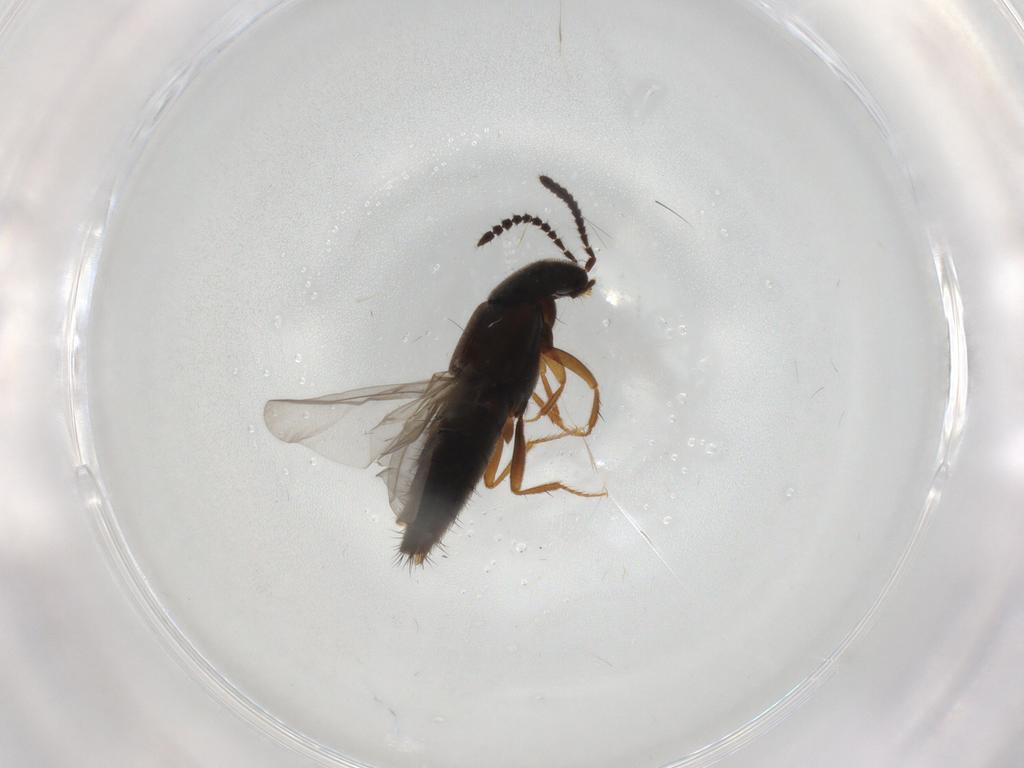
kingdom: Animalia
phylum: Arthropoda
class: Insecta
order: Coleoptera
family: Staphylinidae
